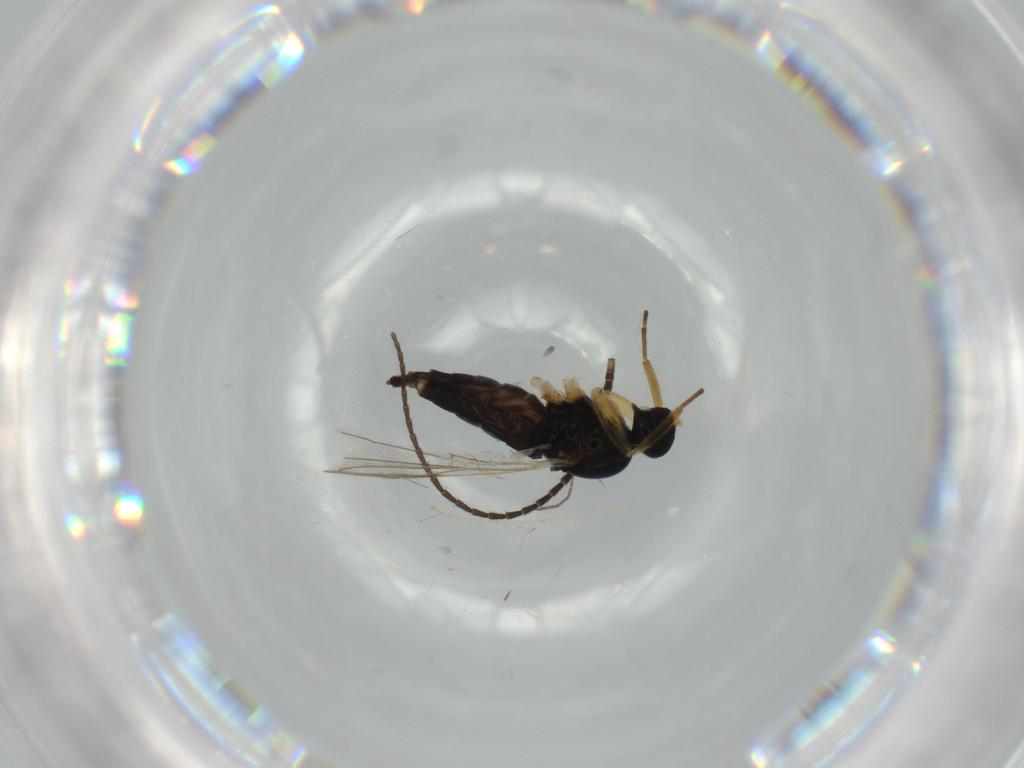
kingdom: Animalia
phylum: Arthropoda
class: Insecta
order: Diptera
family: Chironomidae
